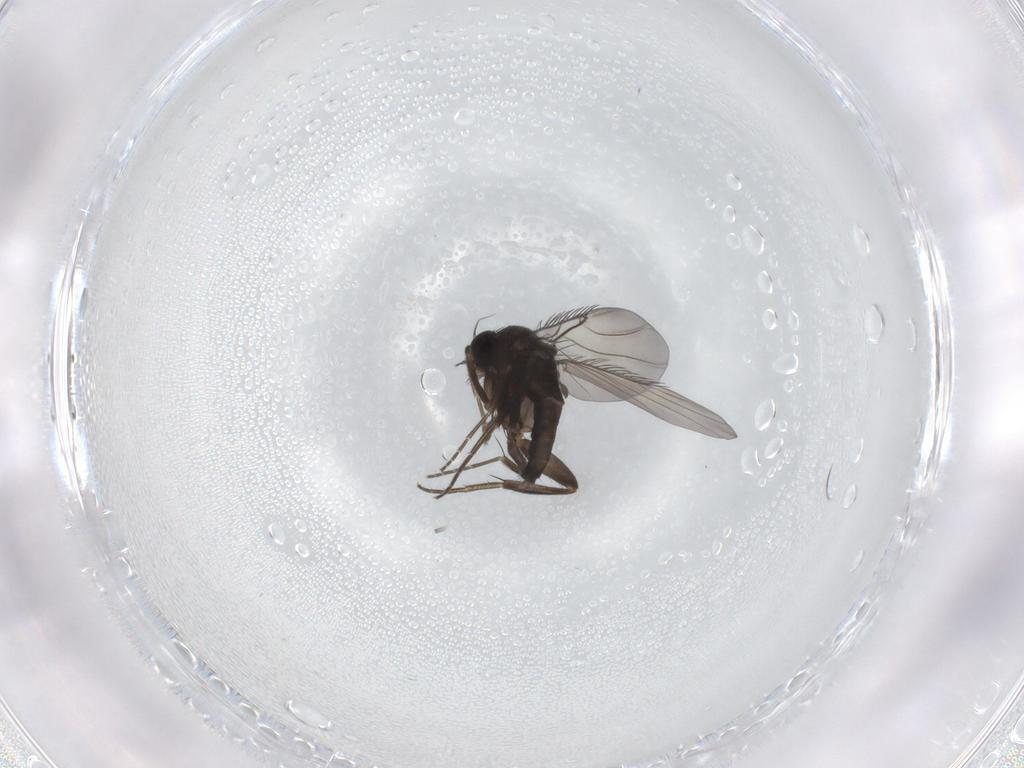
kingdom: Animalia
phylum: Arthropoda
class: Insecta
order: Diptera
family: Phoridae
